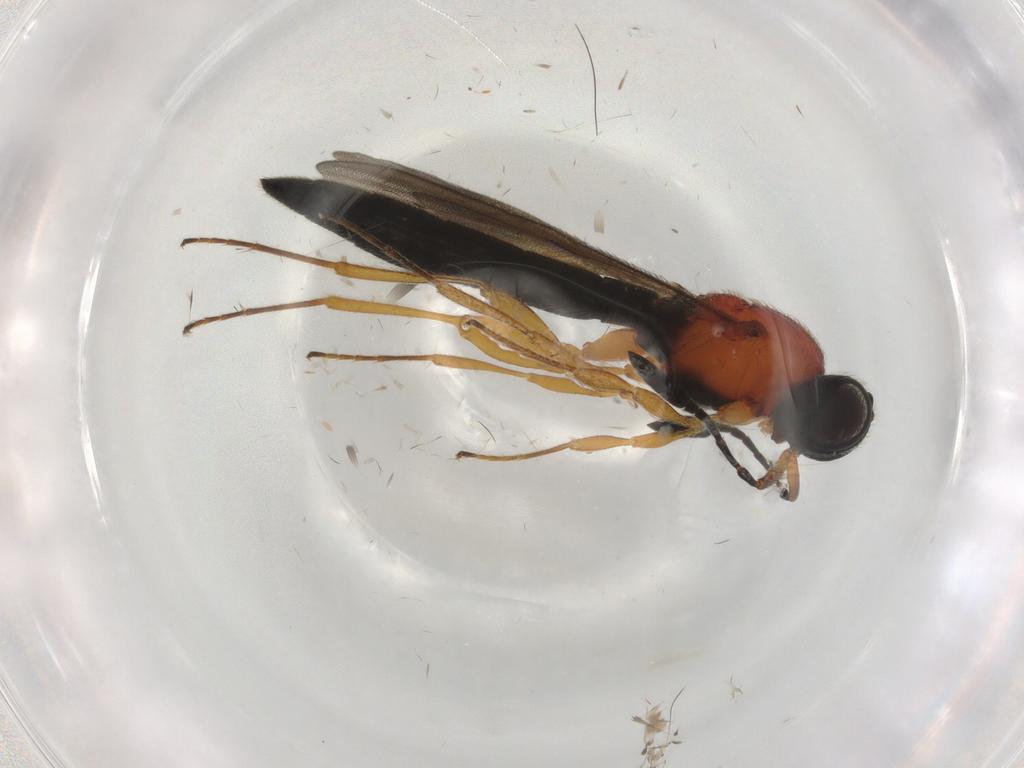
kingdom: Animalia
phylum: Arthropoda
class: Insecta
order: Hymenoptera
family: Scelionidae
